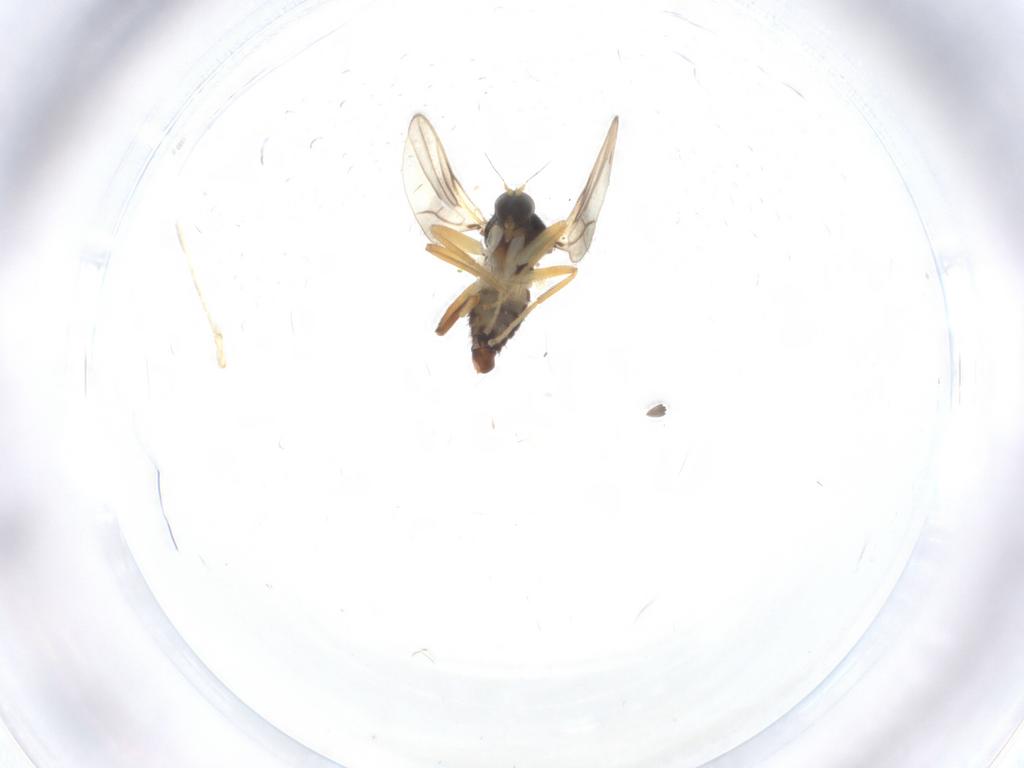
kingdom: Animalia
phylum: Arthropoda
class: Insecta
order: Diptera
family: Hybotidae
